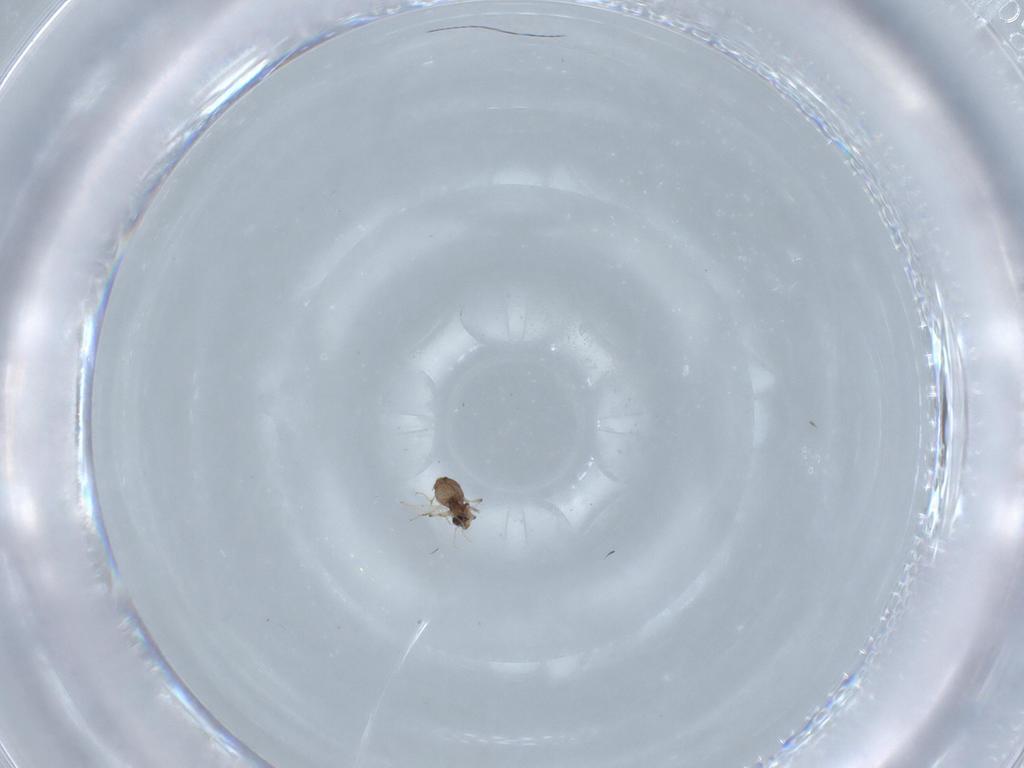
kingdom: Animalia
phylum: Arthropoda
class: Insecta
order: Diptera
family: Chironomidae
